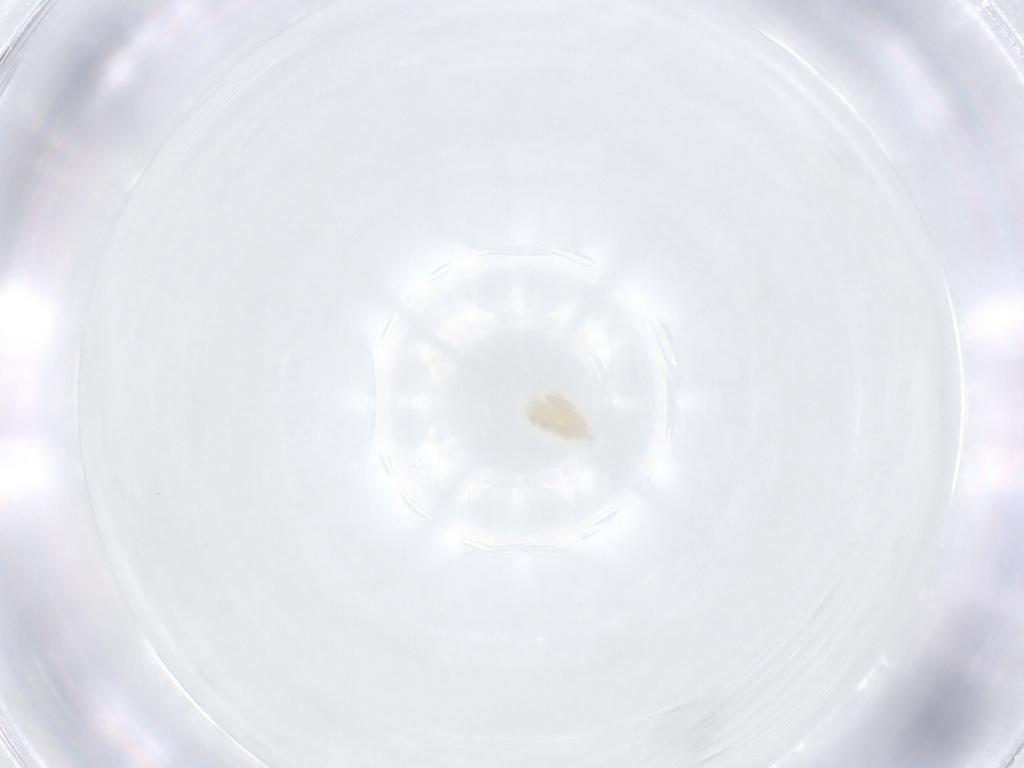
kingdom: Animalia
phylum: Arthropoda
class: Arachnida
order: Trombidiformes
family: Eupodidae
